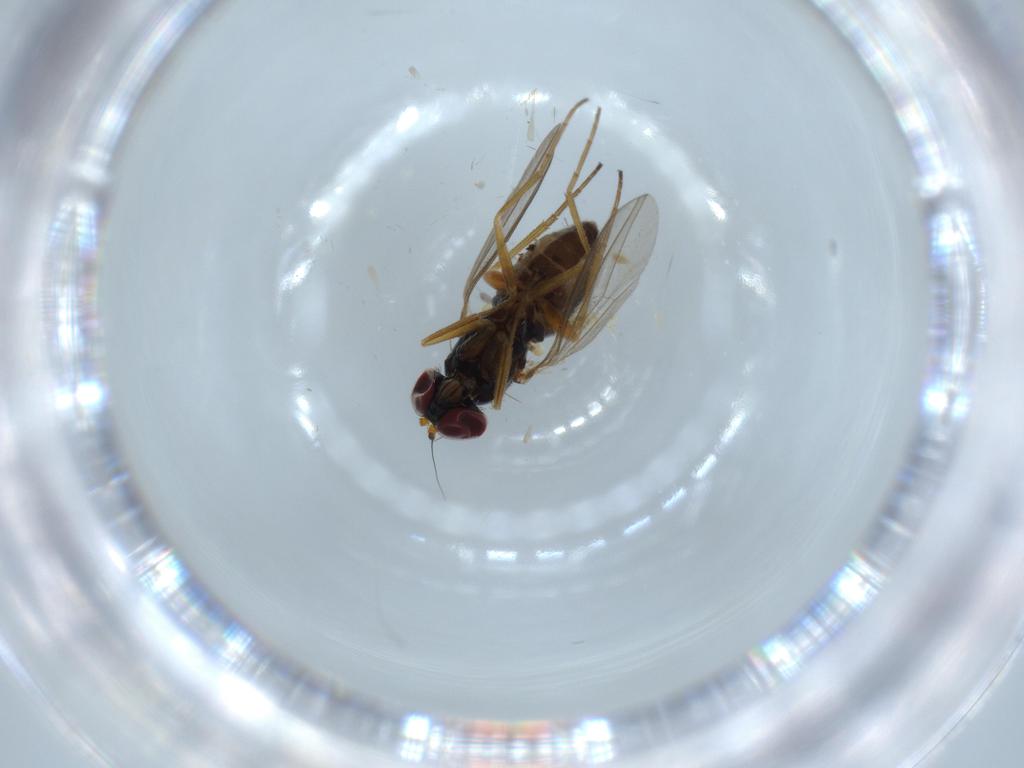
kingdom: Animalia
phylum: Arthropoda
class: Insecta
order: Diptera
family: Dolichopodidae
